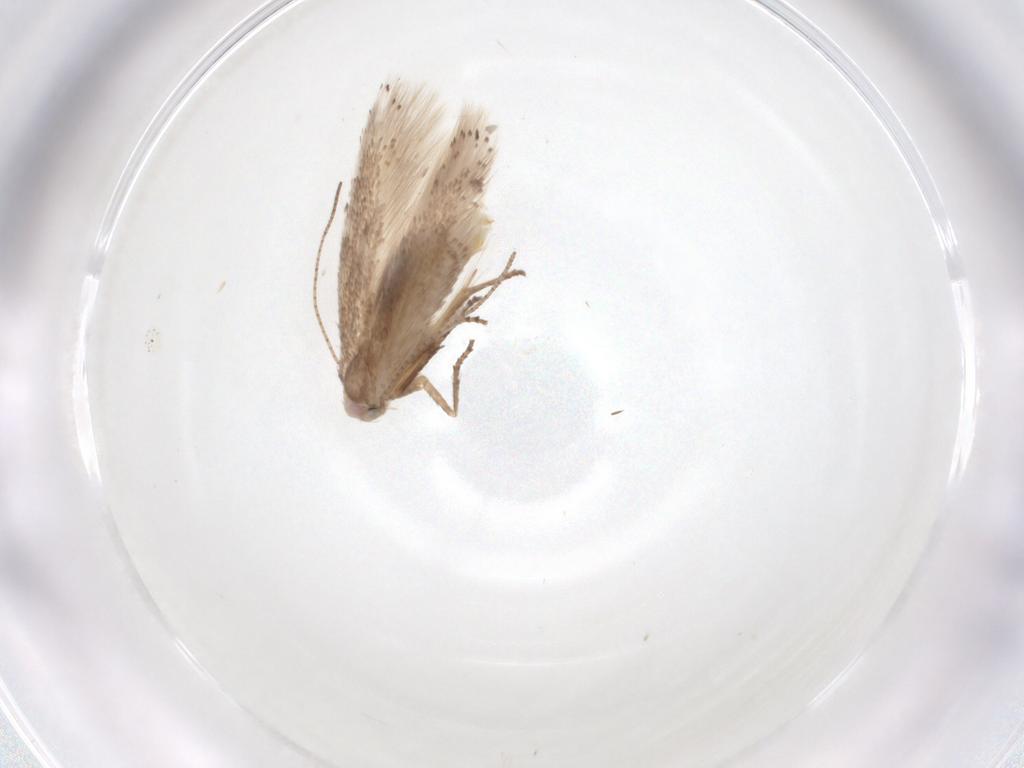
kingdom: Animalia
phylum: Arthropoda
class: Insecta
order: Lepidoptera
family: Bucculatricidae
